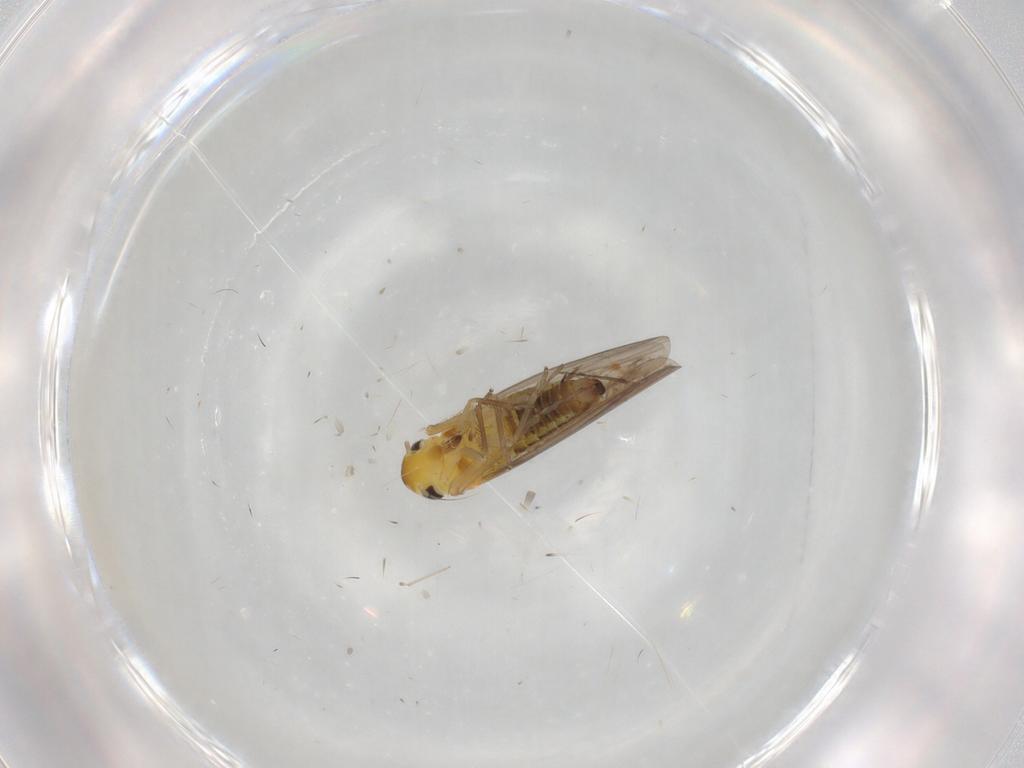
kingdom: Animalia
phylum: Arthropoda
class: Insecta
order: Hemiptera
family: Cicadellidae
